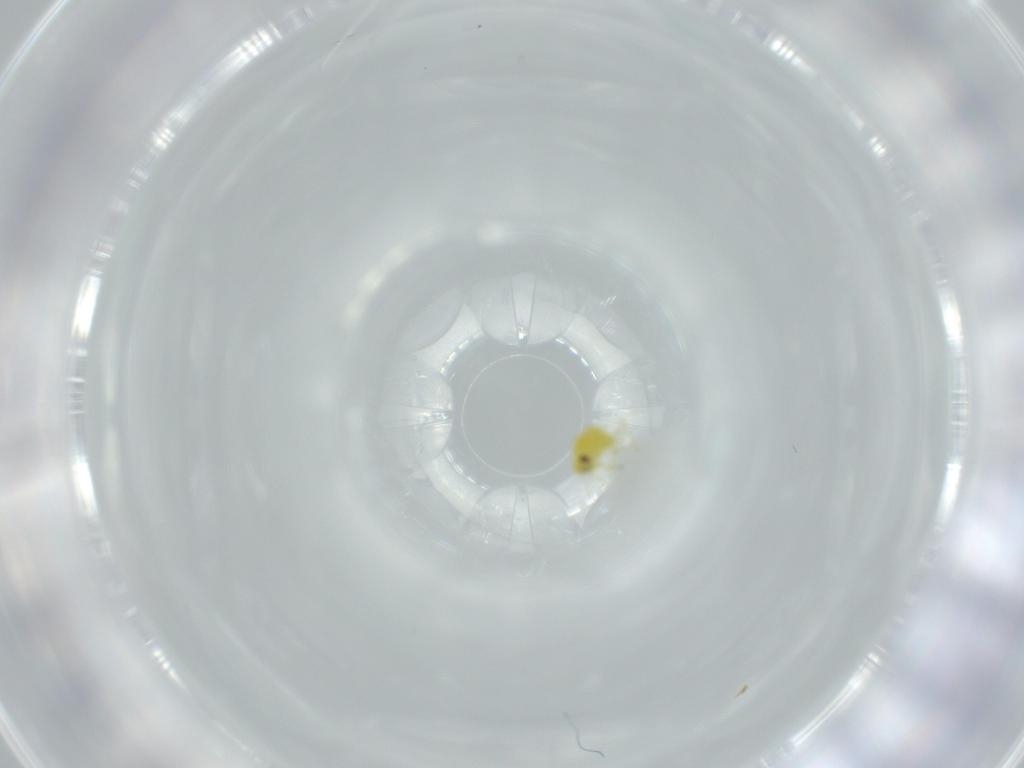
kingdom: Animalia
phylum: Arthropoda
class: Insecta
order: Hemiptera
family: Aleyrodidae
